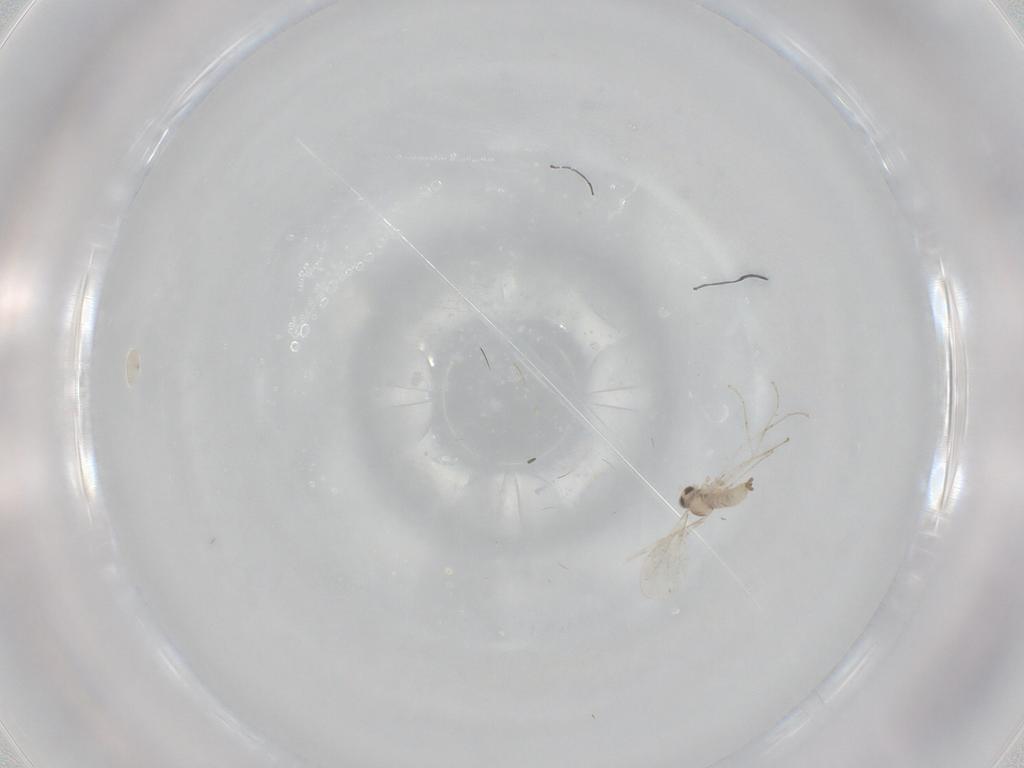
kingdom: Animalia
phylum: Arthropoda
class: Insecta
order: Diptera
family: Cecidomyiidae
